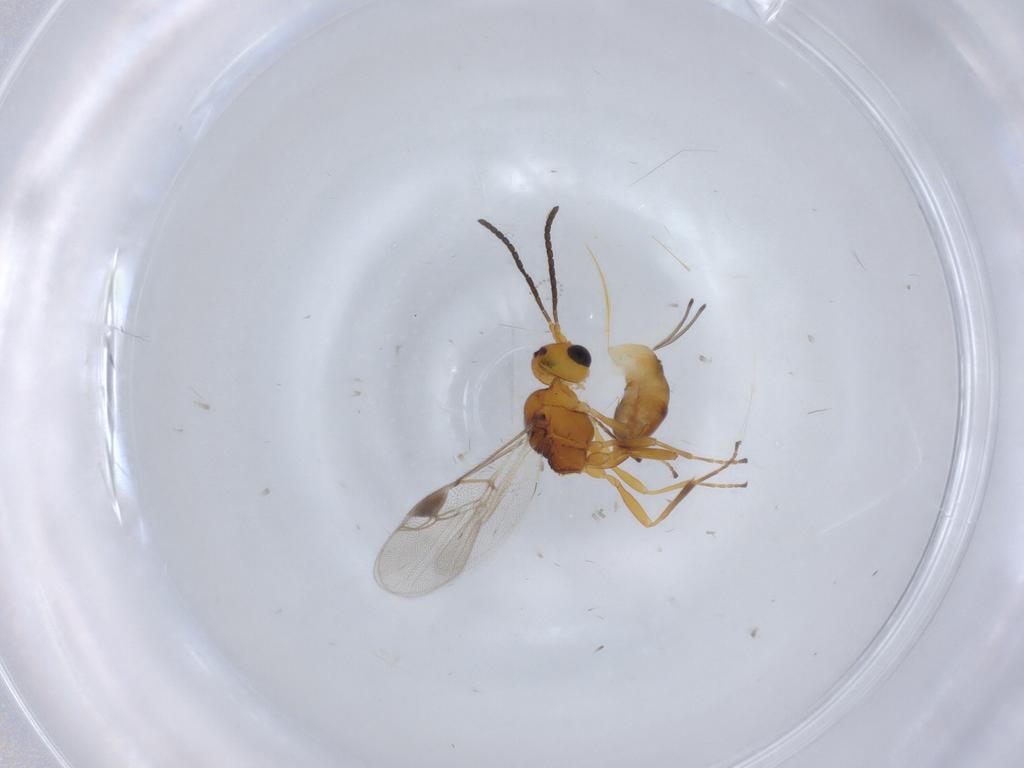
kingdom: Animalia
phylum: Arthropoda
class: Insecta
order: Hymenoptera
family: Braconidae
